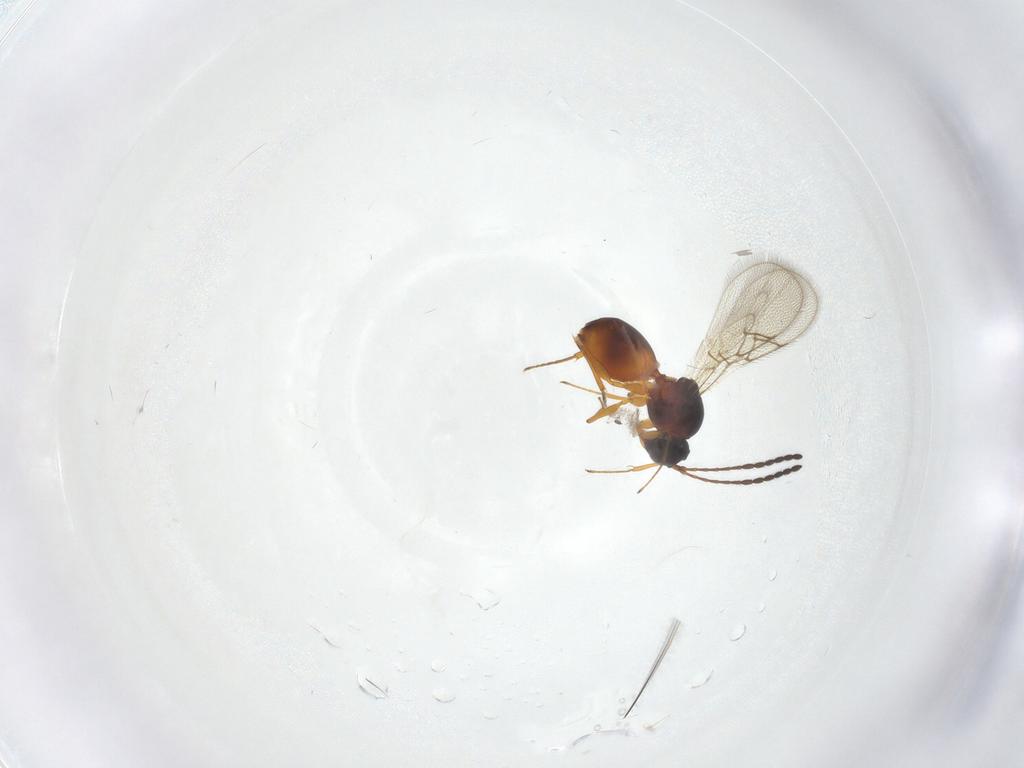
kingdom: Animalia
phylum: Arthropoda
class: Insecta
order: Hymenoptera
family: Figitidae
